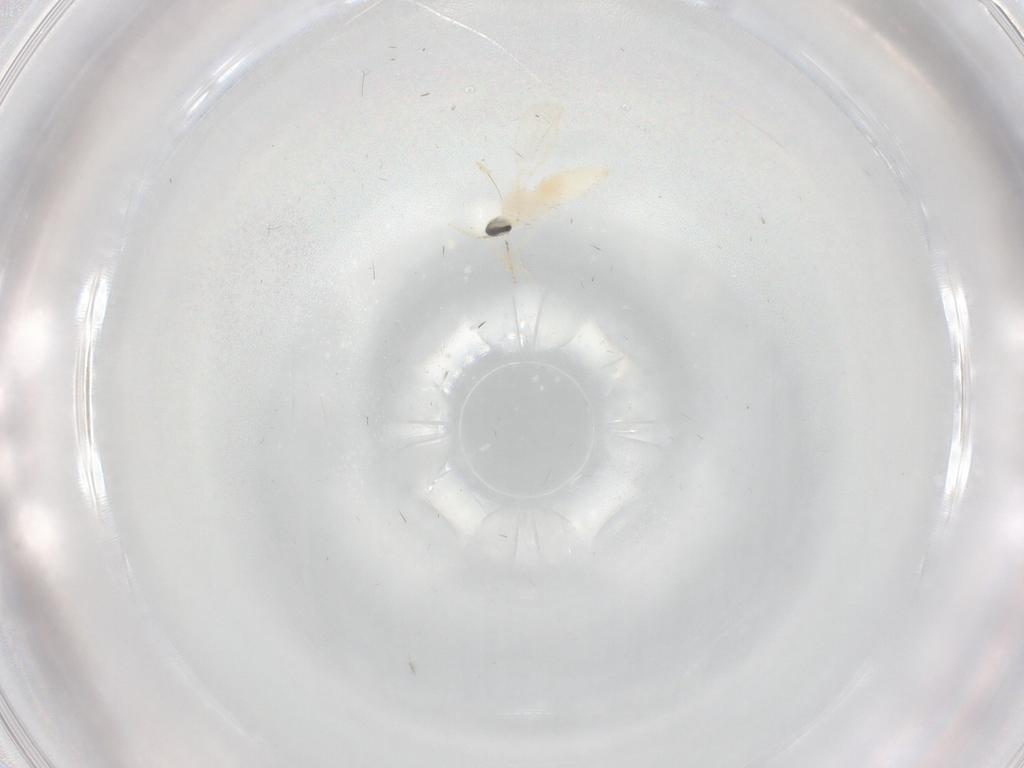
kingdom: Animalia
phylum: Arthropoda
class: Insecta
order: Diptera
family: Cecidomyiidae
